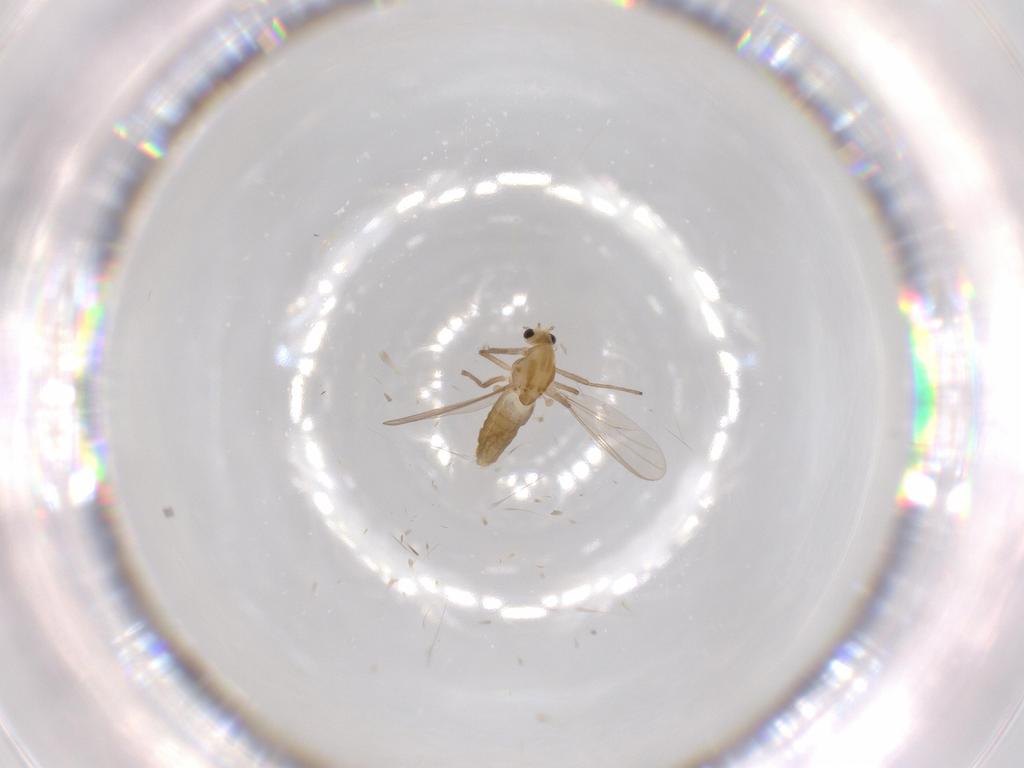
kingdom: Animalia
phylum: Arthropoda
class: Insecta
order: Diptera
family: Chironomidae
